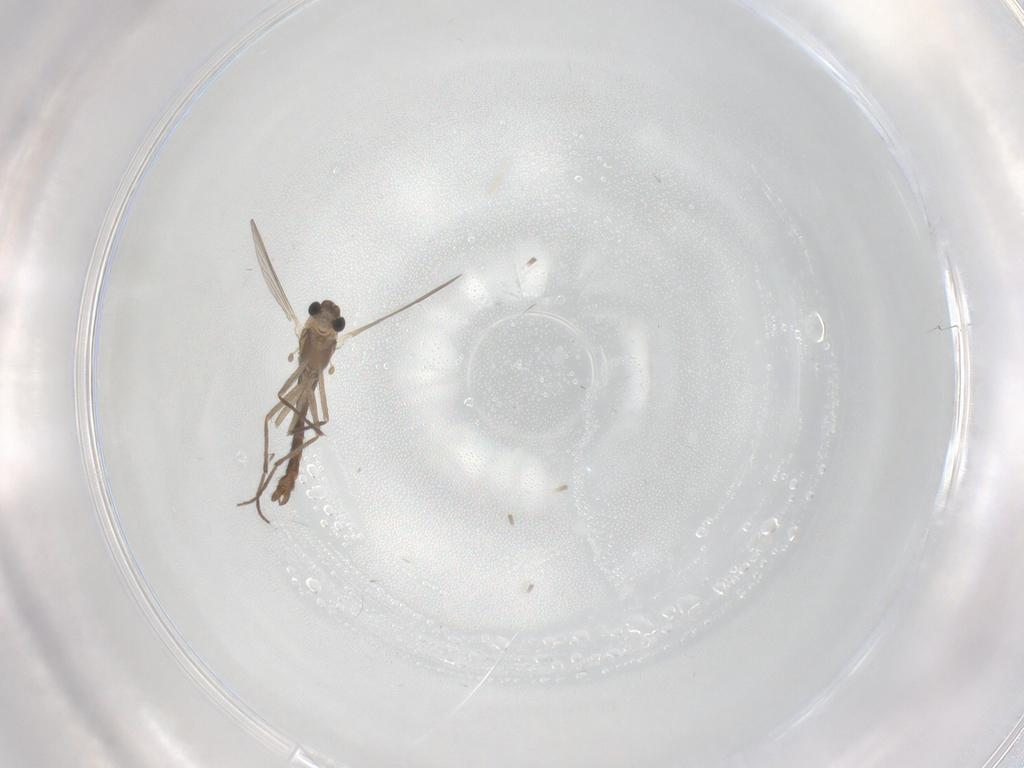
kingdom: Animalia
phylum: Arthropoda
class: Insecta
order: Diptera
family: Chironomidae
